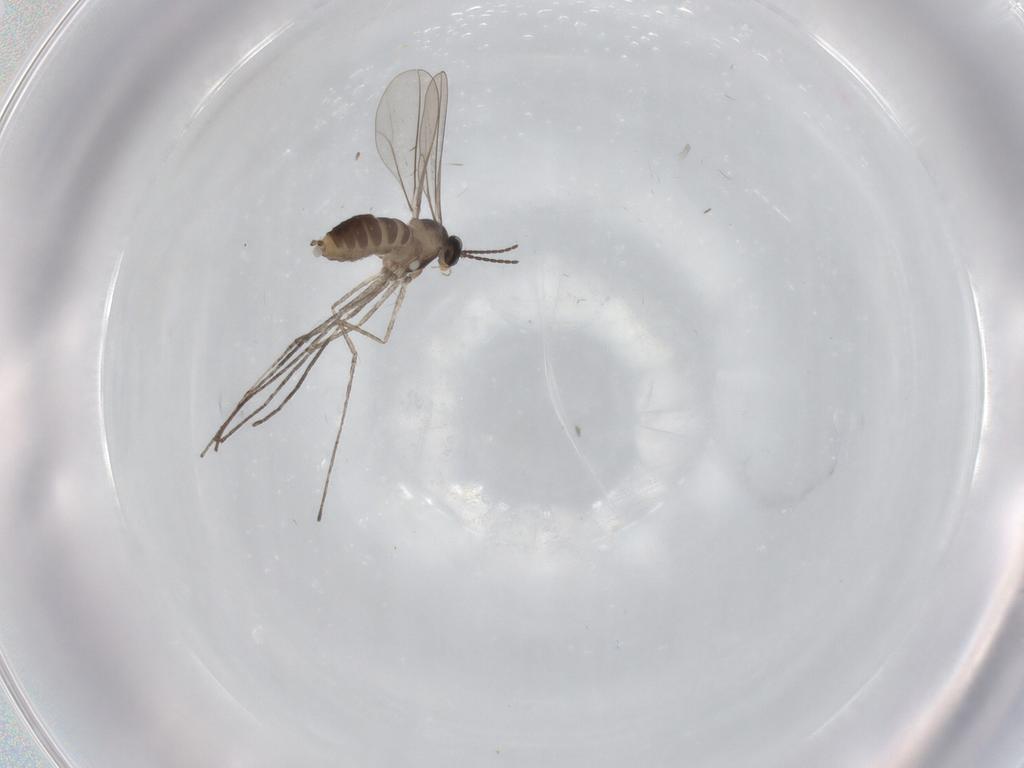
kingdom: Animalia
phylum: Arthropoda
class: Insecta
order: Diptera
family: Cecidomyiidae
